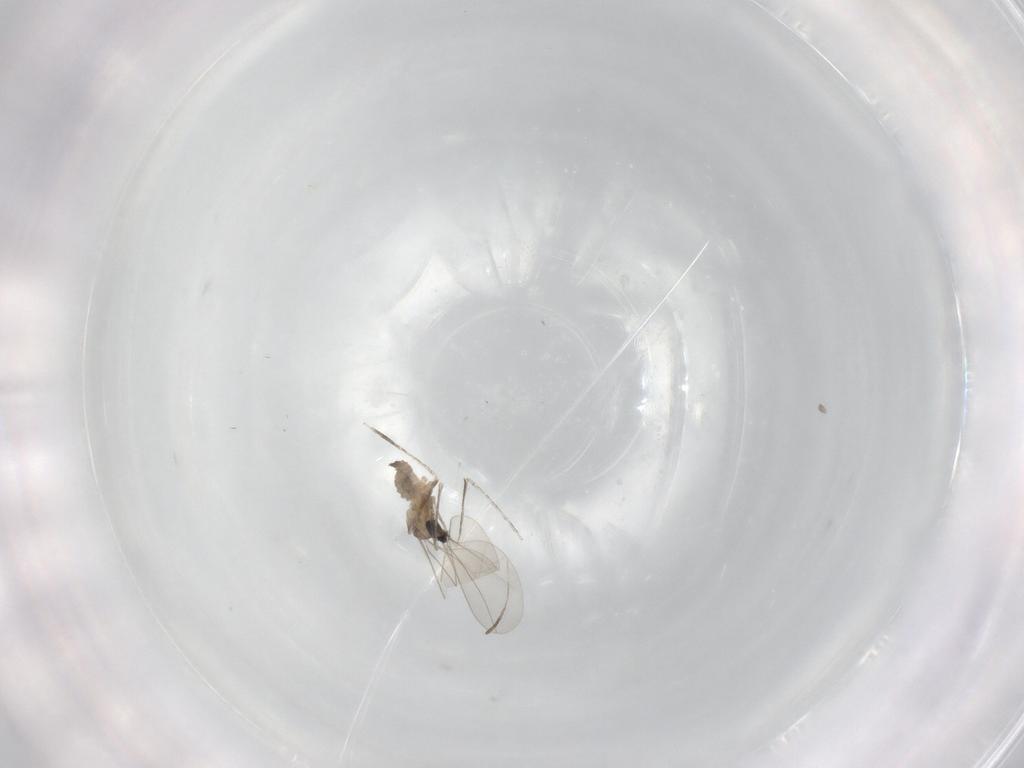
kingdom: Animalia
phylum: Arthropoda
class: Insecta
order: Diptera
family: Cecidomyiidae
